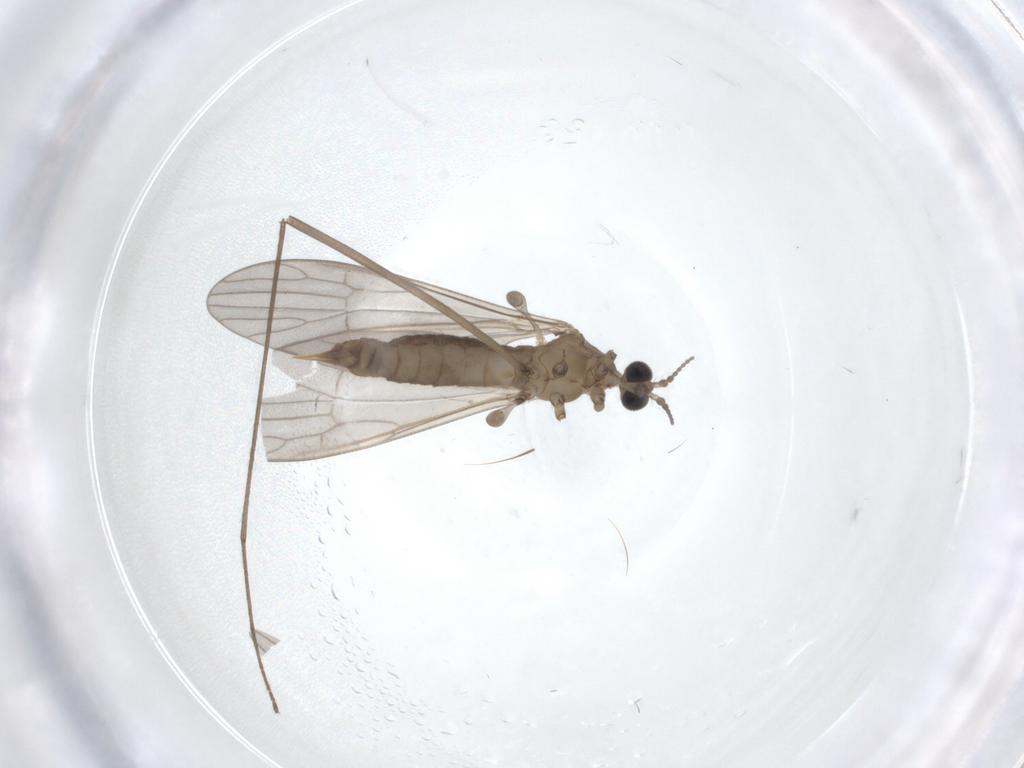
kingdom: Animalia
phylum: Arthropoda
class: Insecta
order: Diptera
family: Limoniidae
